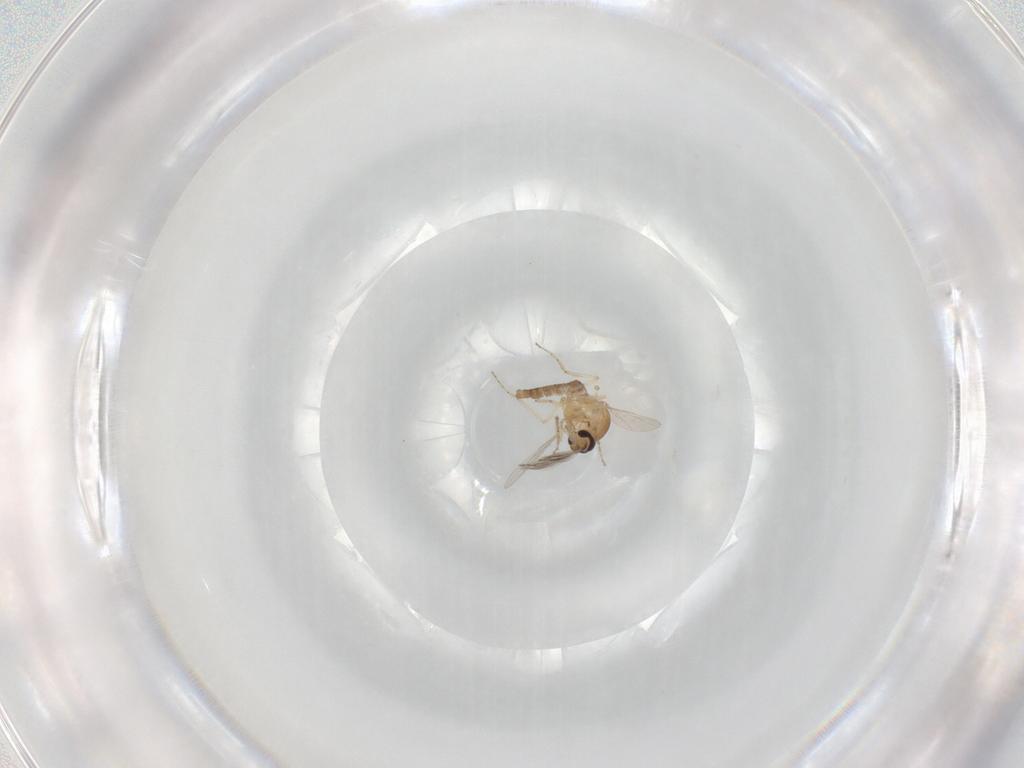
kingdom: Animalia
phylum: Arthropoda
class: Insecta
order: Diptera
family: Ceratopogonidae
